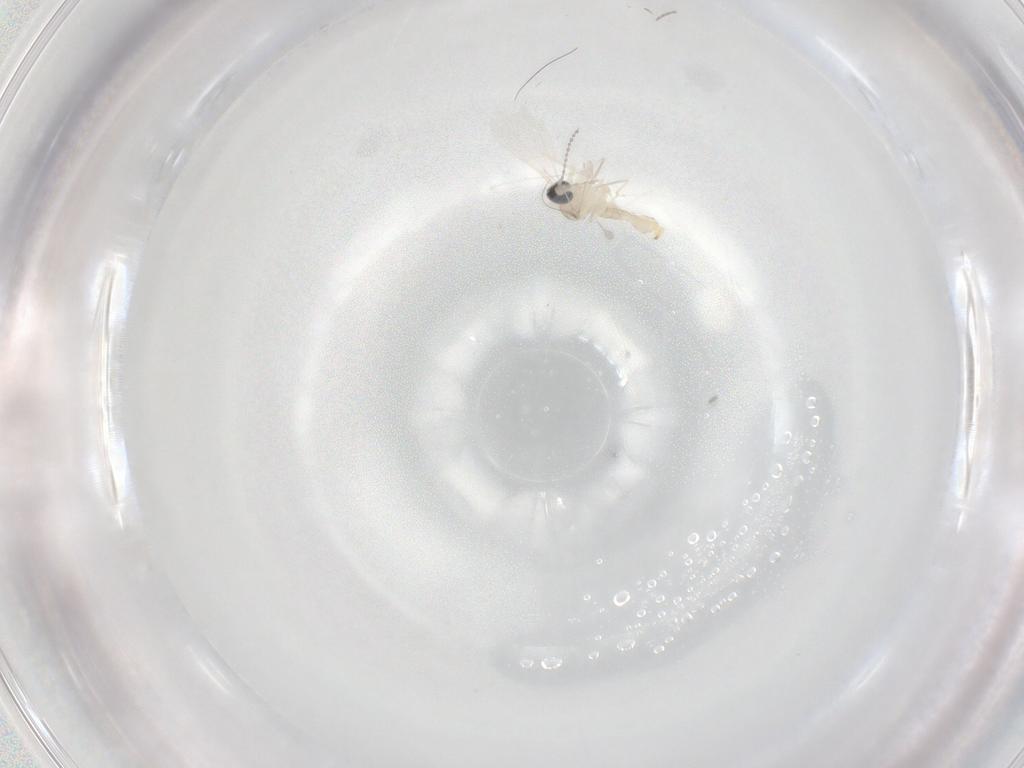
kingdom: Animalia
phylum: Arthropoda
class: Insecta
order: Diptera
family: Cecidomyiidae
